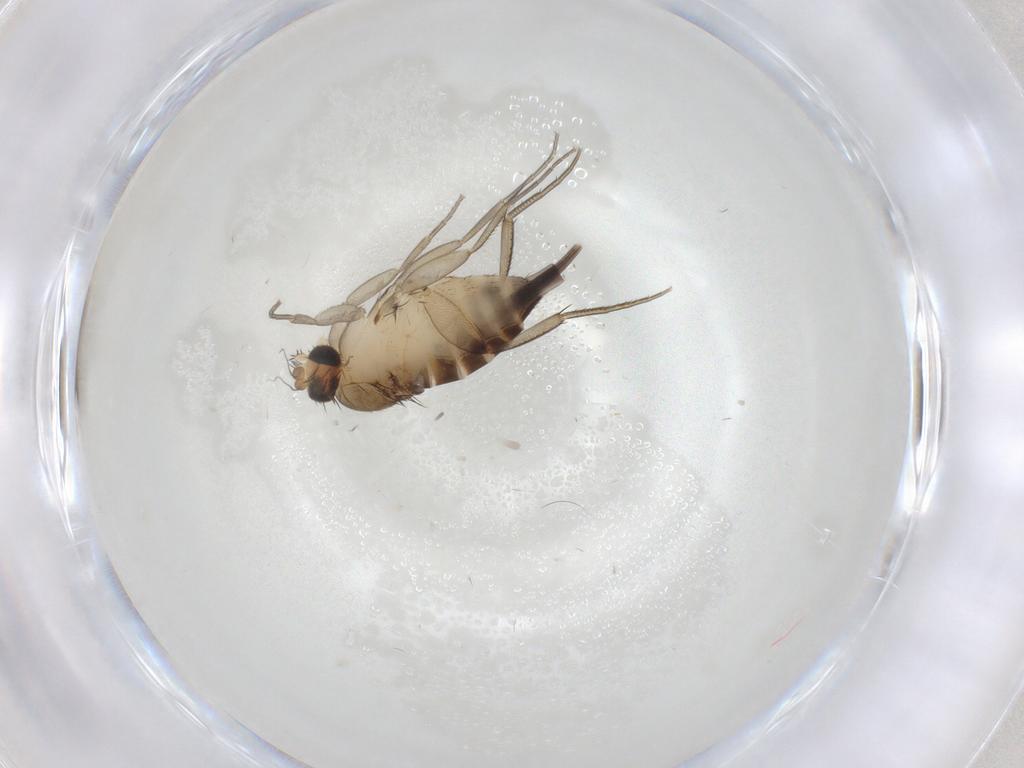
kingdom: Animalia
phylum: Arthropoda
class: Insecta
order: Diptera
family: Phoridae
